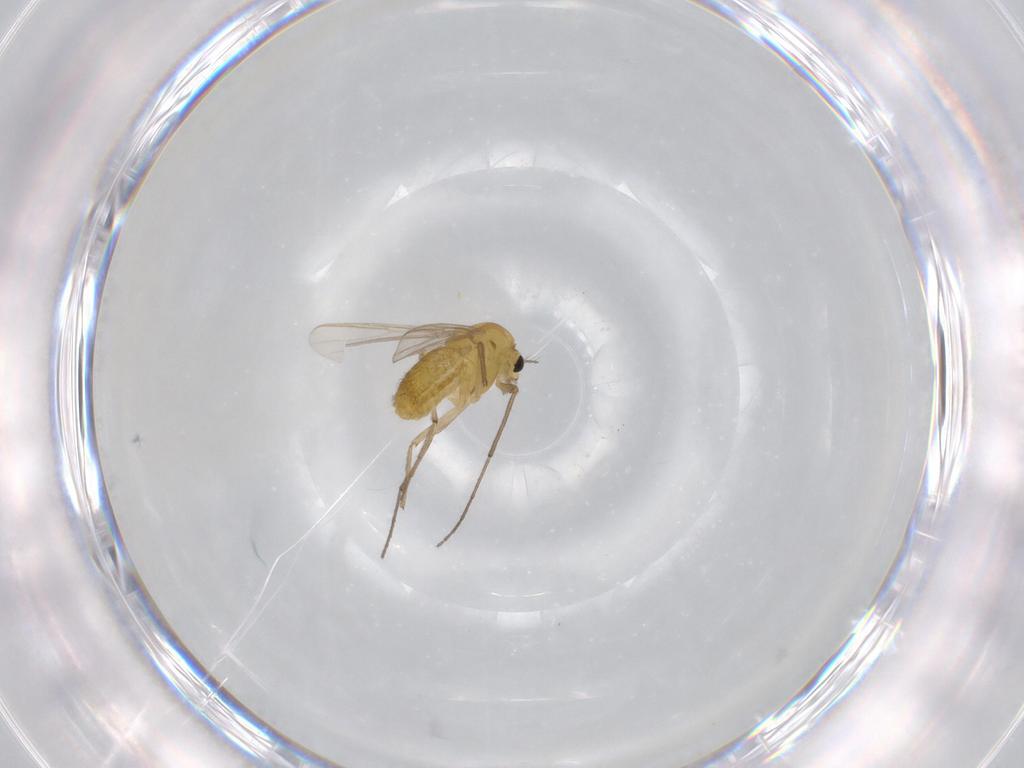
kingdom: Animalia
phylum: Arthropoda
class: Insecta
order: Diptera
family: Chironomidae
